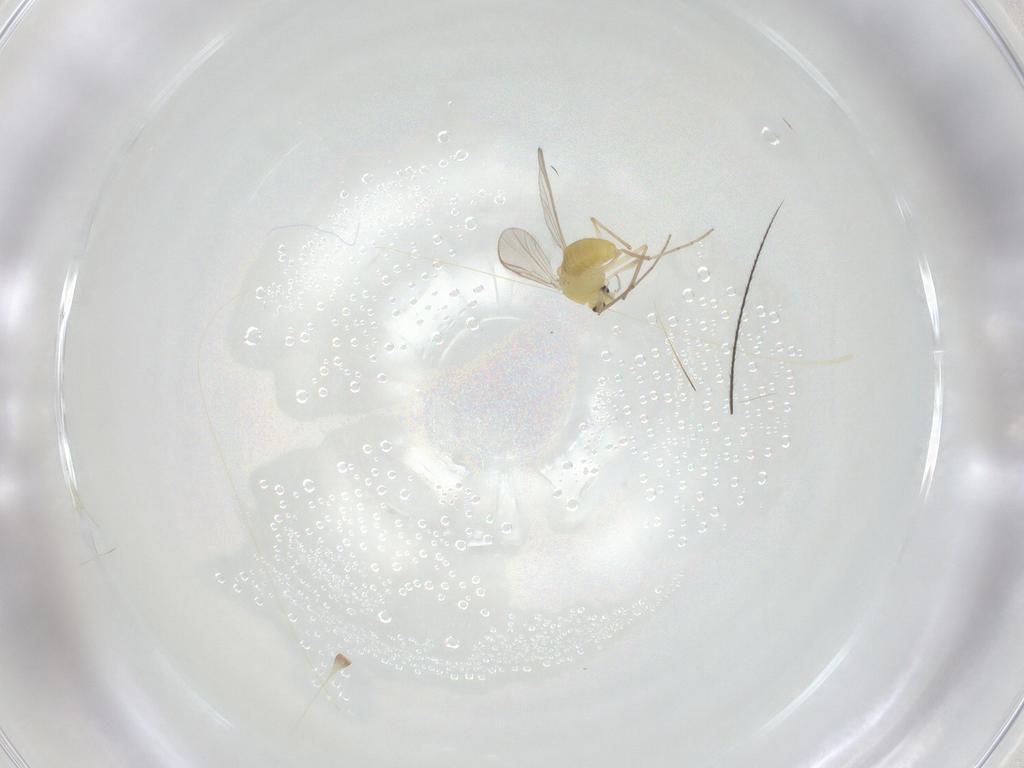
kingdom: Animalia
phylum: Arthropoda
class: Insecta
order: Diptera
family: Chironomidae
